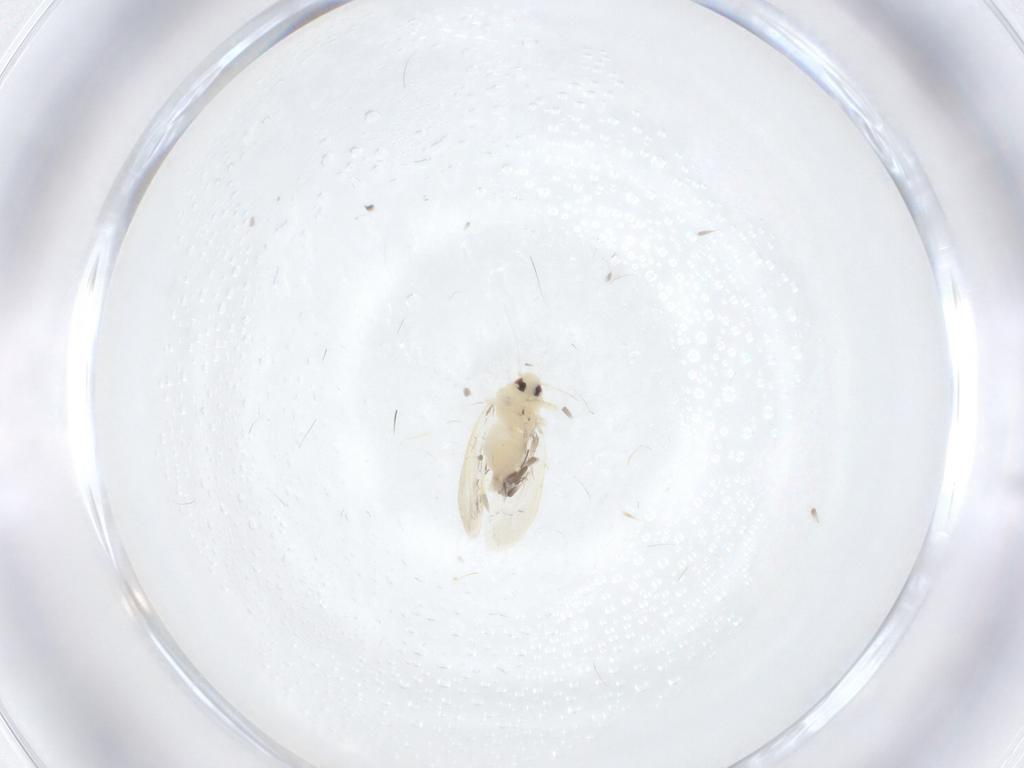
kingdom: Animalia
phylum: Arthropoda
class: Insecta
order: Hemiptera
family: Aleyrodidae
